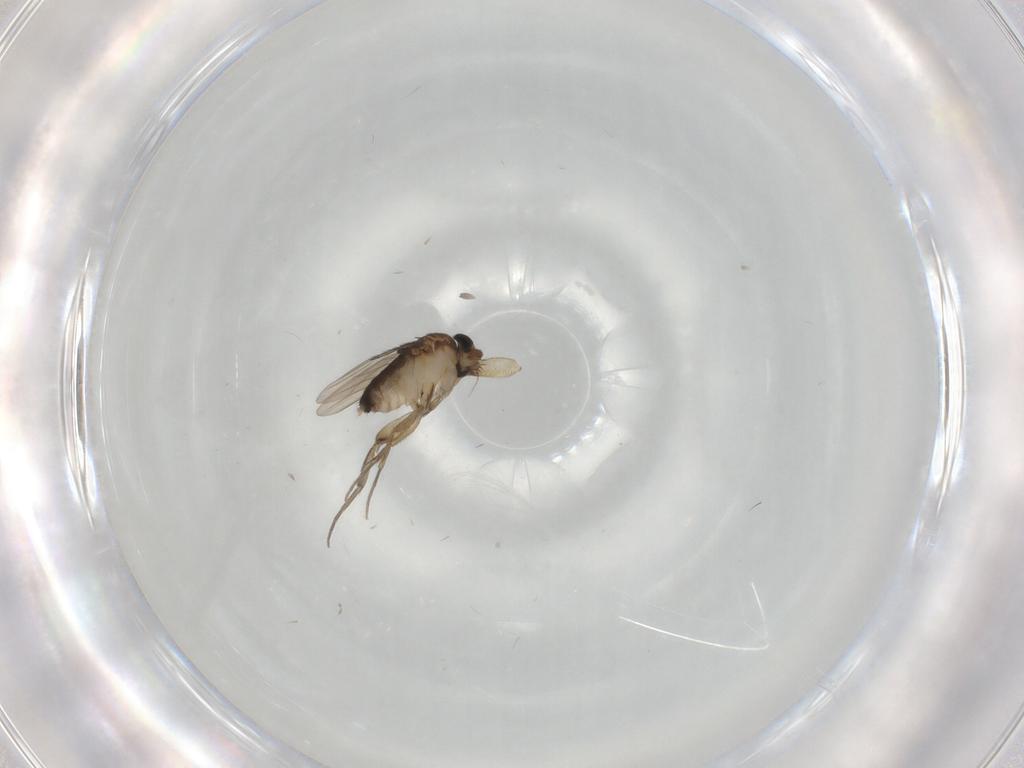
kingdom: Animalia
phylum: Arthropoda
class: Insecta
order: Diptera
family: Phoridae
